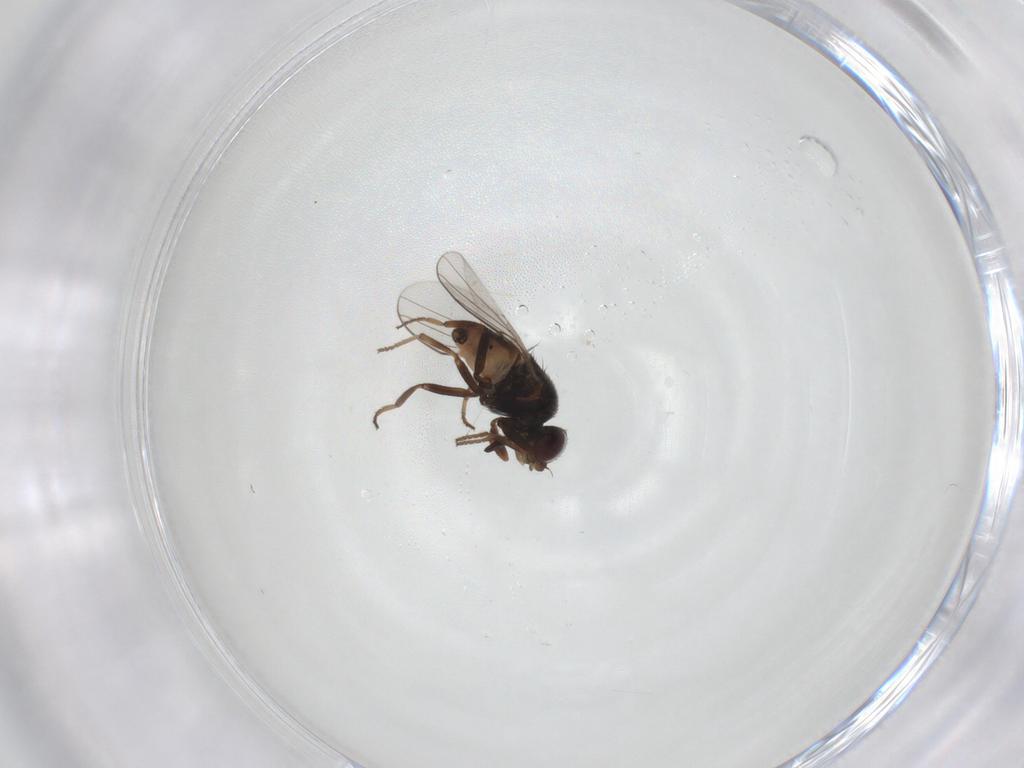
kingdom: Animalia
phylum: Arthropoda
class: Insecta
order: Diptera
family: Chloropidae
